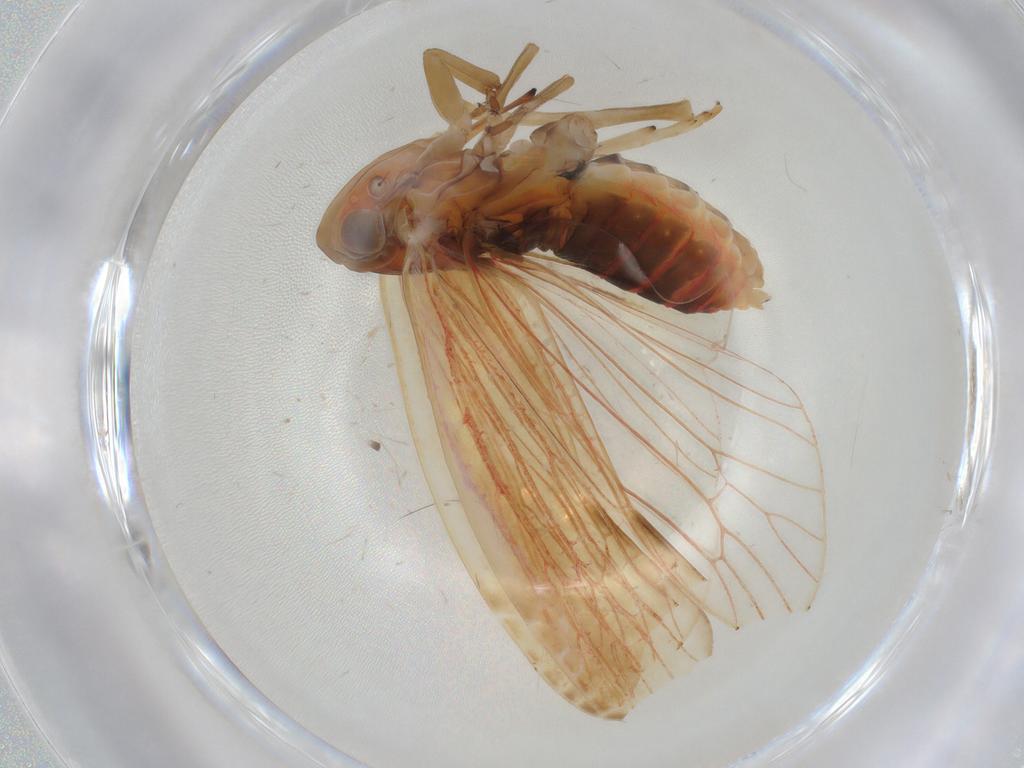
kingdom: Animalia
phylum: Arthropoda
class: Insecta
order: Hemiptera
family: Achilidae
